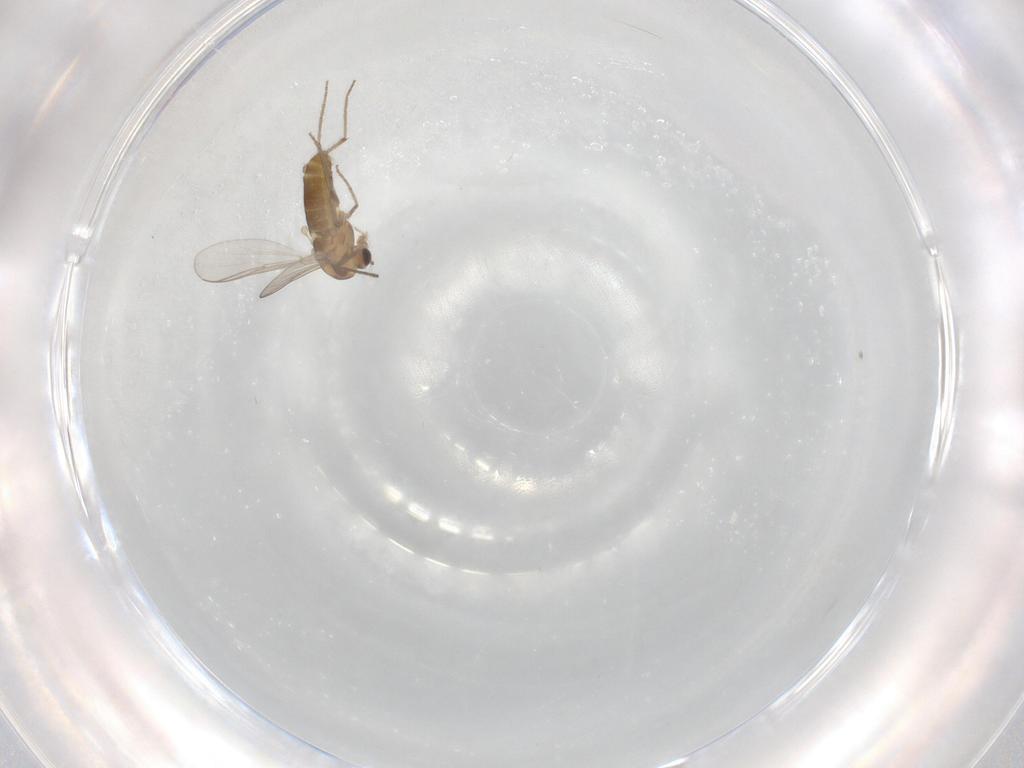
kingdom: Animalia
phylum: Arthropoda
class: Insecta
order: Diptera
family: Chironomidae
